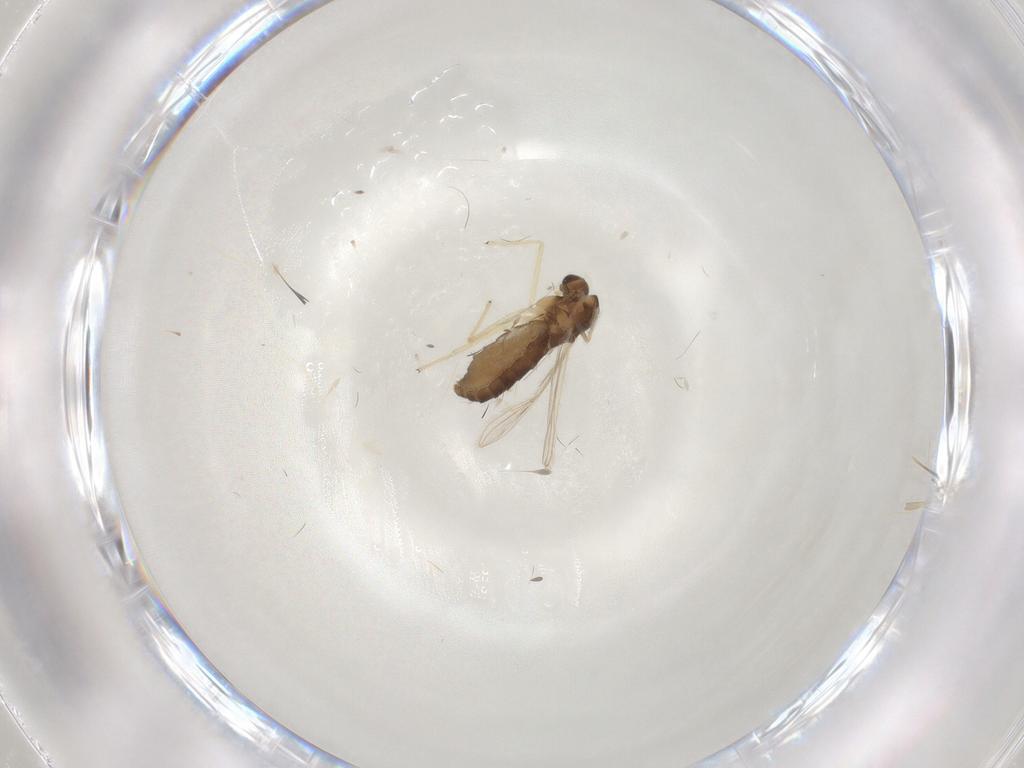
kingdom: Animalia
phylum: Arthropoda
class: Insecta
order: Diptera
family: Chironomidae
